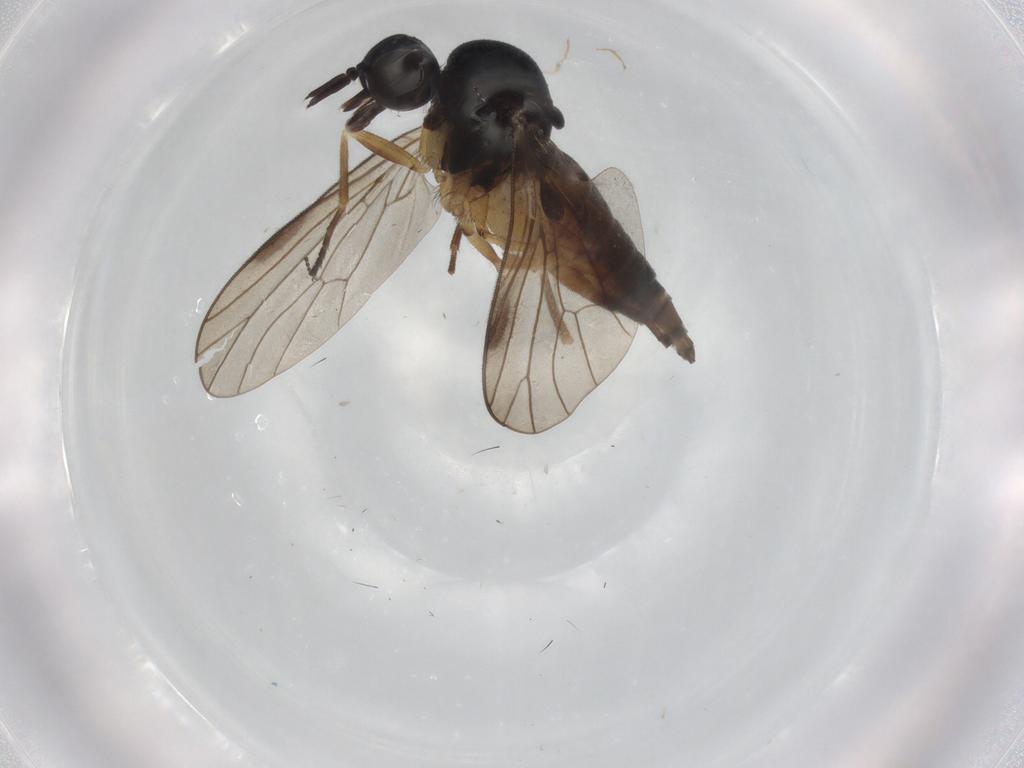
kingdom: Animalia
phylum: Arthropoda
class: Insecta
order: Diptera
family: Iteaphilidae
